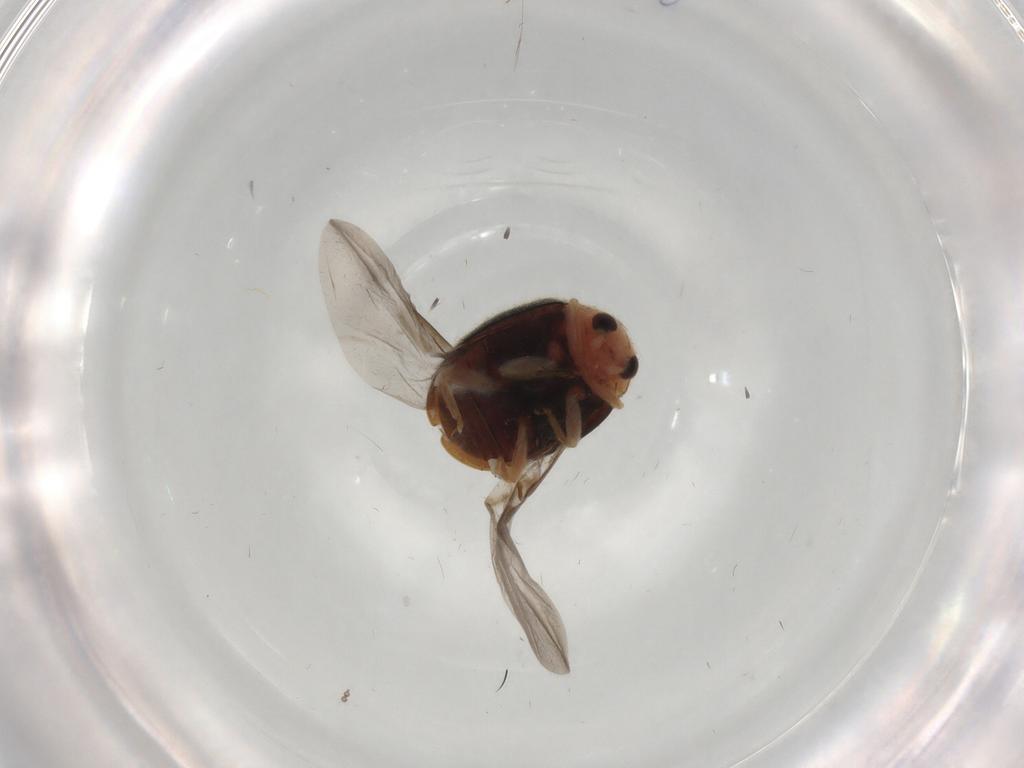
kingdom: Animalia
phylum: Arthropoda
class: Insecta
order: Coleoptera
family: Coccinellidae
